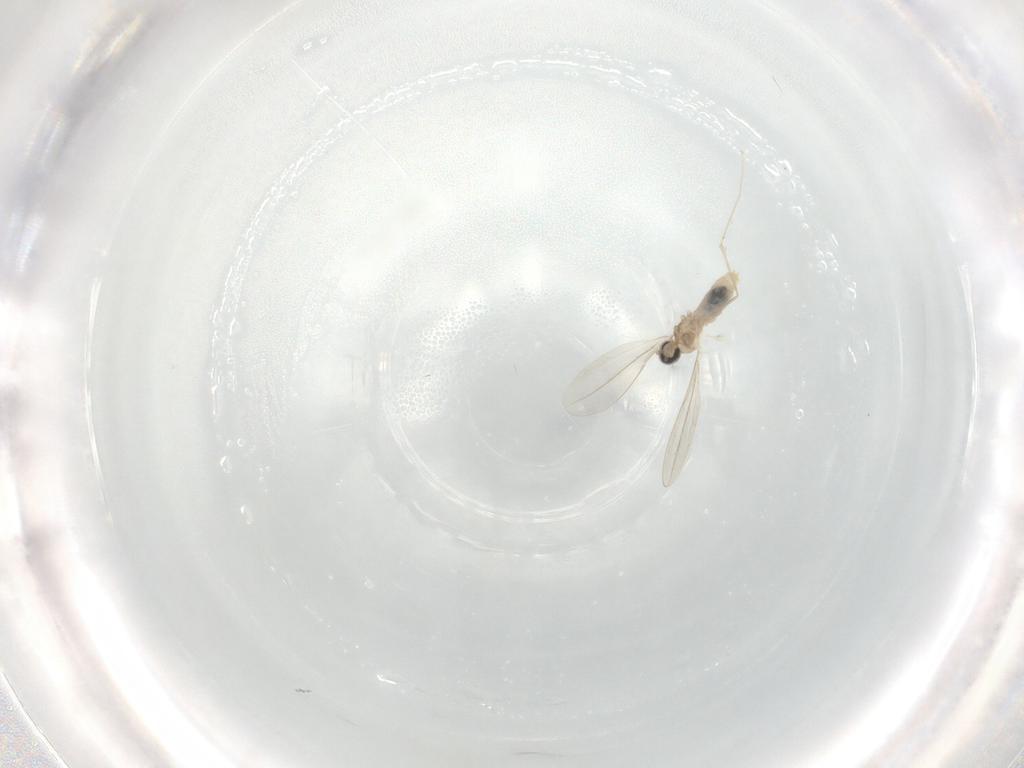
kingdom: Animalia
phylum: Arthropoda
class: Insecta
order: Diptera
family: Cecidomyiidae
